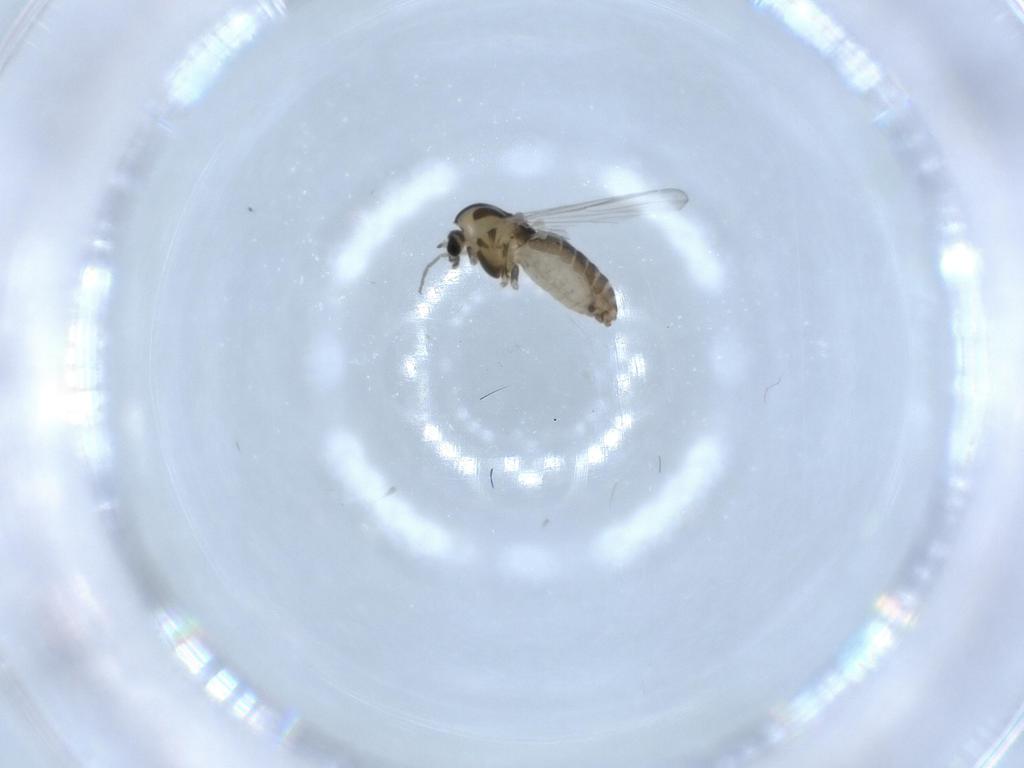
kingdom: Animalia
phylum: Arthropoda
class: Insecta
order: Diptera
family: Chironomidae
